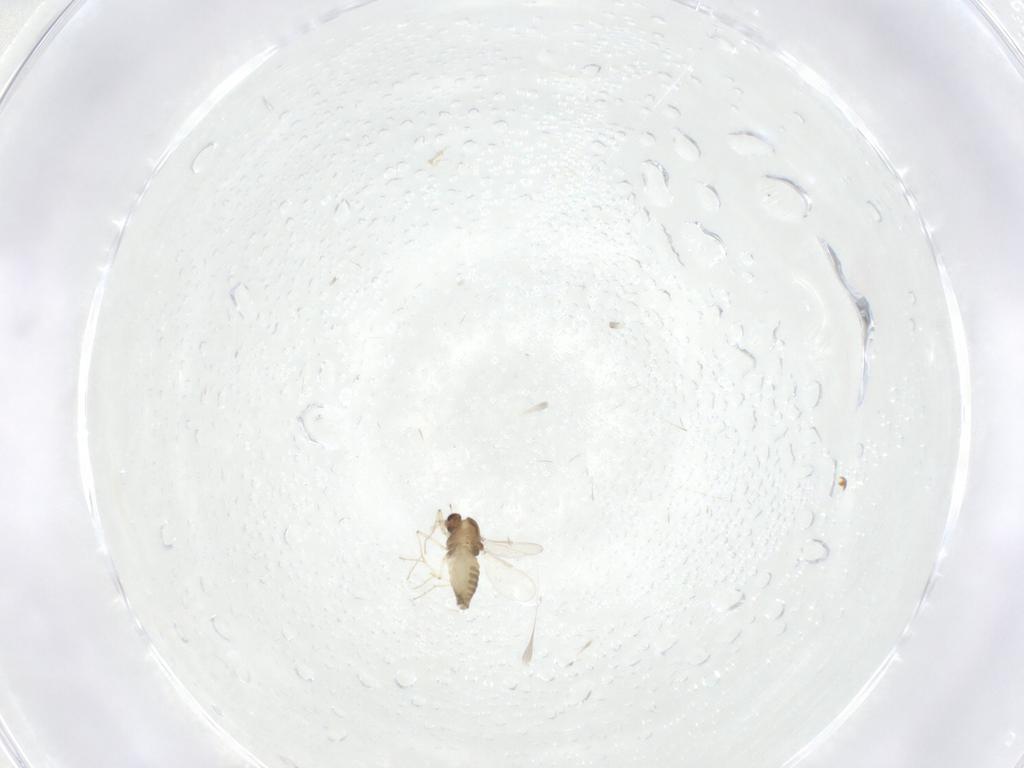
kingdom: Animalia
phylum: Arthropoda
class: Insecta
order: Diptera
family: Chironomidae
